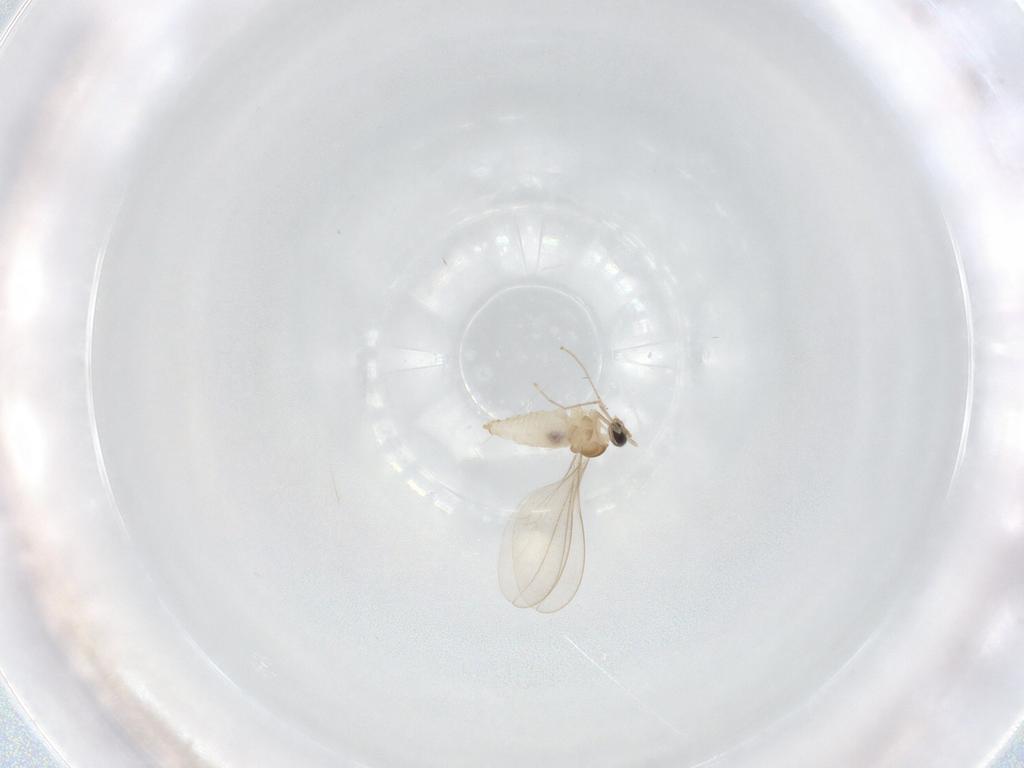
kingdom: Animalia
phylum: Arthropoda
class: Insecta
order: Diptera
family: Cecidomyiidae
